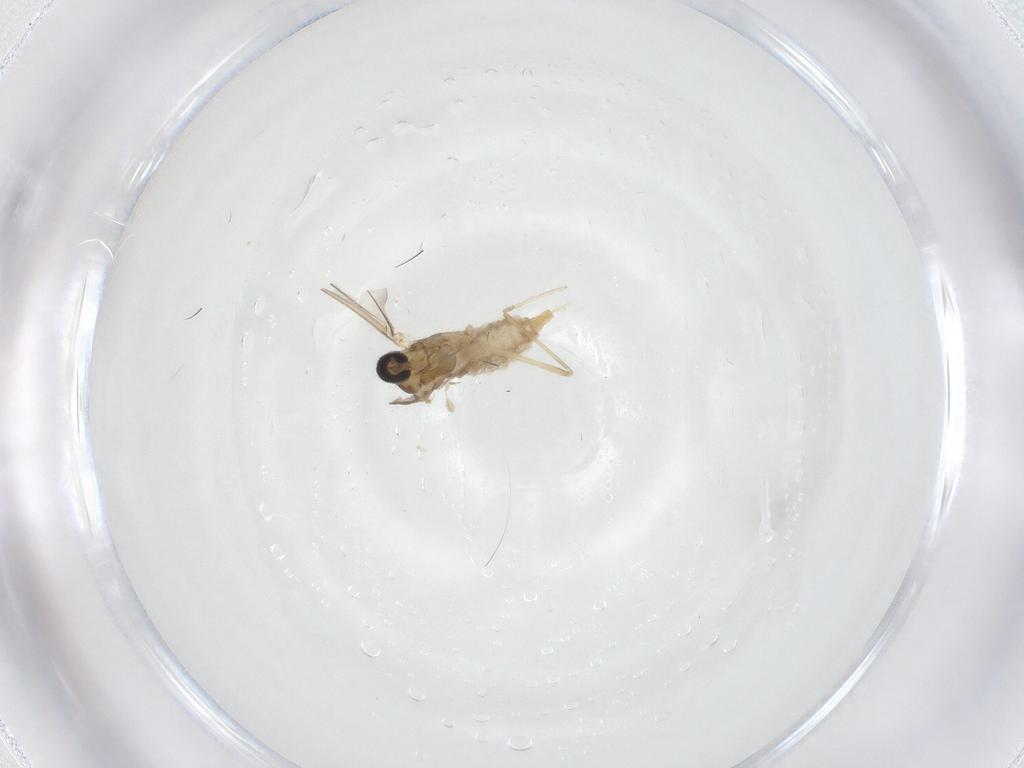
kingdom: Animalia
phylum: Arthropoda
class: Insecta
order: Diptera
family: Cecidomyiidae
